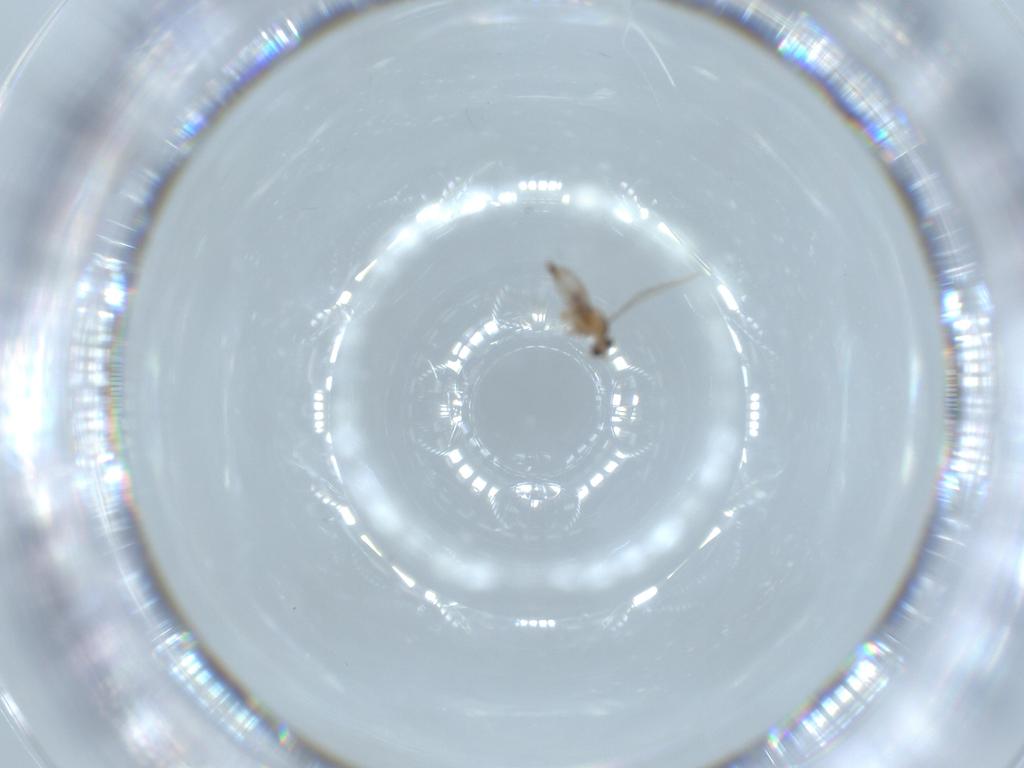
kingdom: Animalia
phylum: Arthropoda
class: Insecta
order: Diptera
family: Cecidomyiidae
